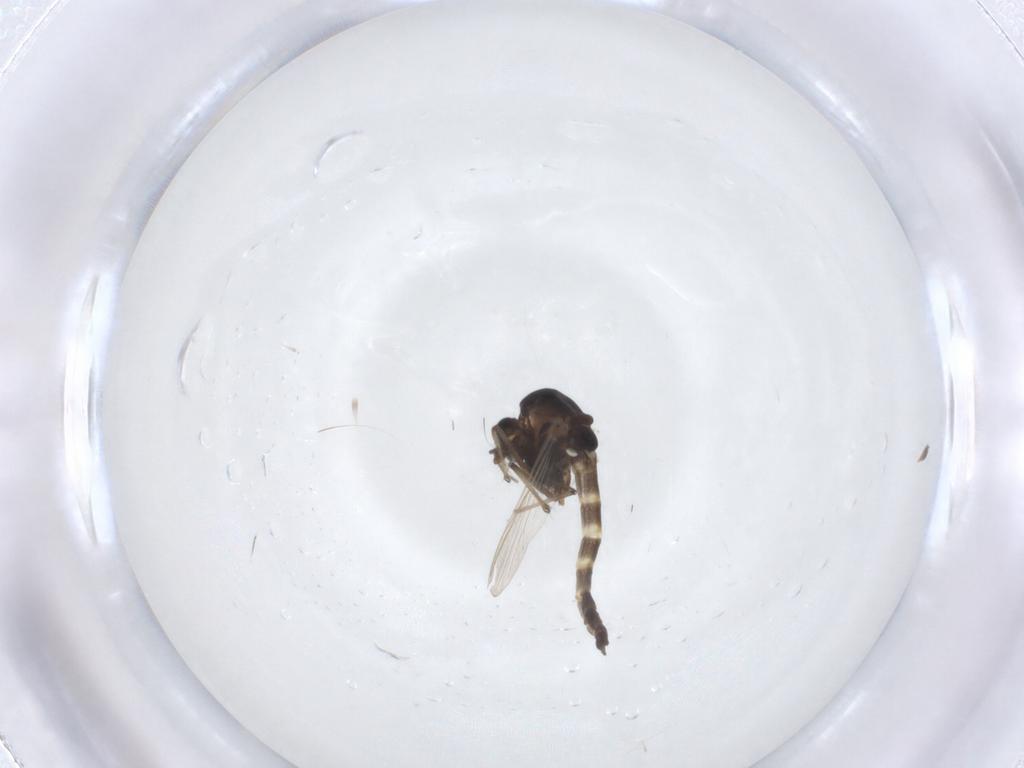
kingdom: Animalia
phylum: Arthropoda
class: Insecta
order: Diptera
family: Chironomidae
